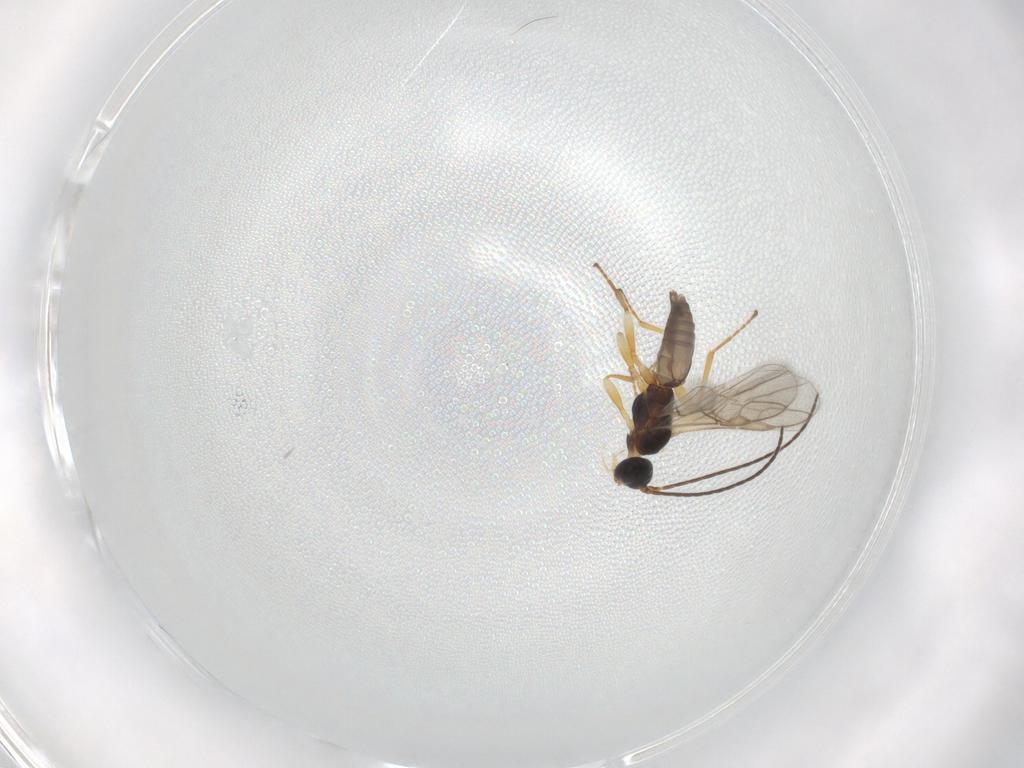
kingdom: Animalia
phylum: Arthropoda
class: Insecta
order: Hymenoptera
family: Braconidae
